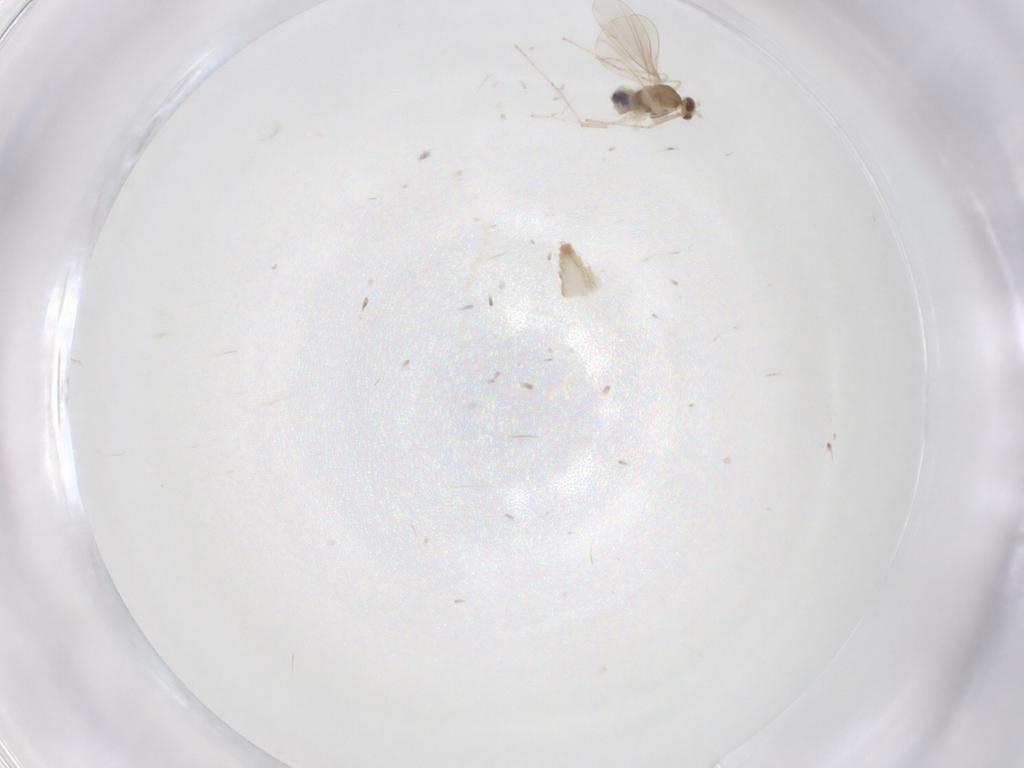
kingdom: Animalia
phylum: Arthropoda
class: Insecta
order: Diptera
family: Cecidomyiidae
